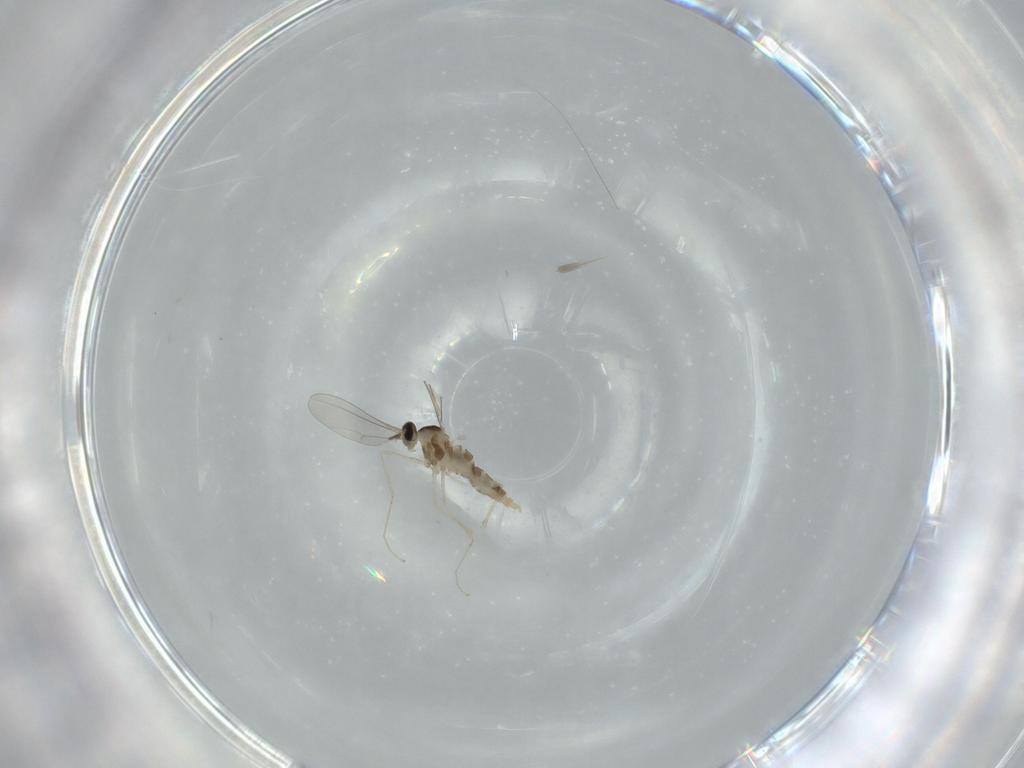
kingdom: Animalia
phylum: Arthropoda
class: Insecta
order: Diptera
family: Cecidomyiidae
